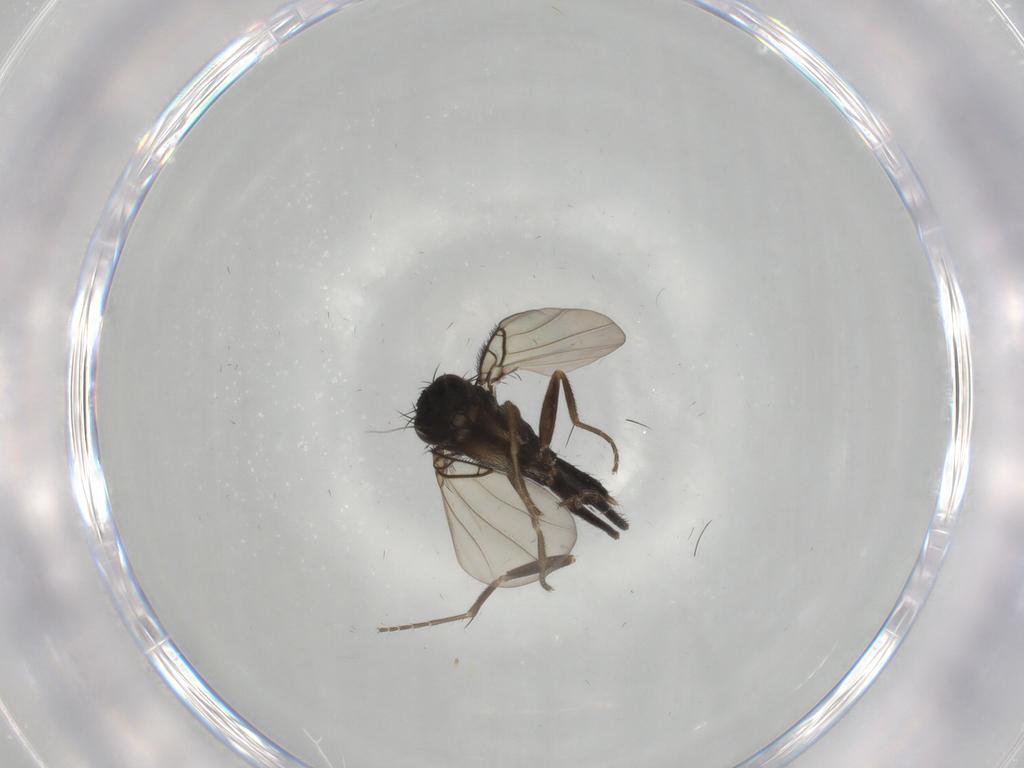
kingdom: Animalia
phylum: Arthropoda
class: Insecta
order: Diptera
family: Phoridae
